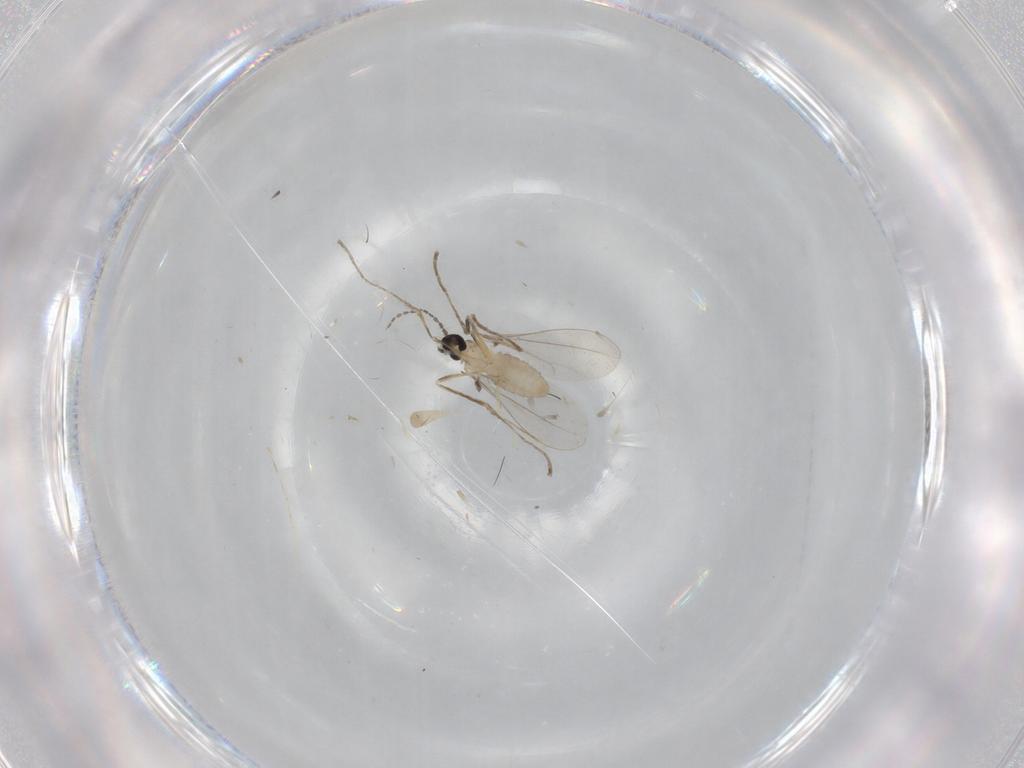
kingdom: Animalia
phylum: Arthropoda
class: Insecta
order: Diptera
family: Cecidomyiidae
